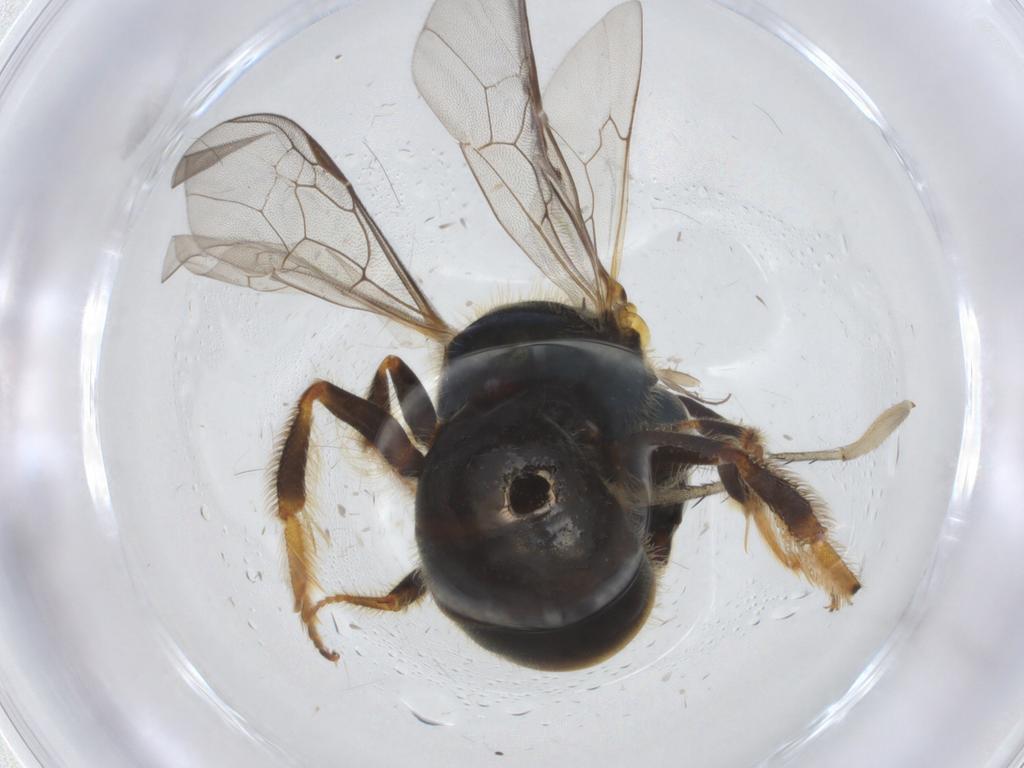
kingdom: Animalia
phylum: Arthropoda
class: Insecta
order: Hymenoptera
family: Halictidae
